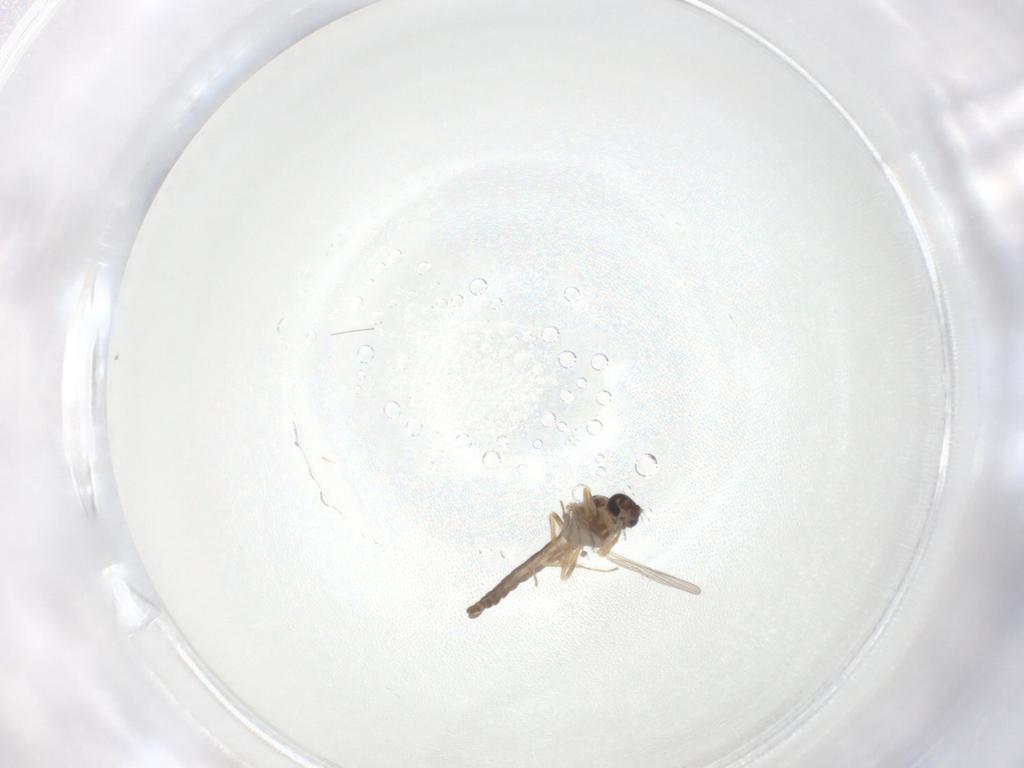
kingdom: Animalia
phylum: Arthropoda
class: Insecta
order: Diptera
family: Ceratopogonidae
